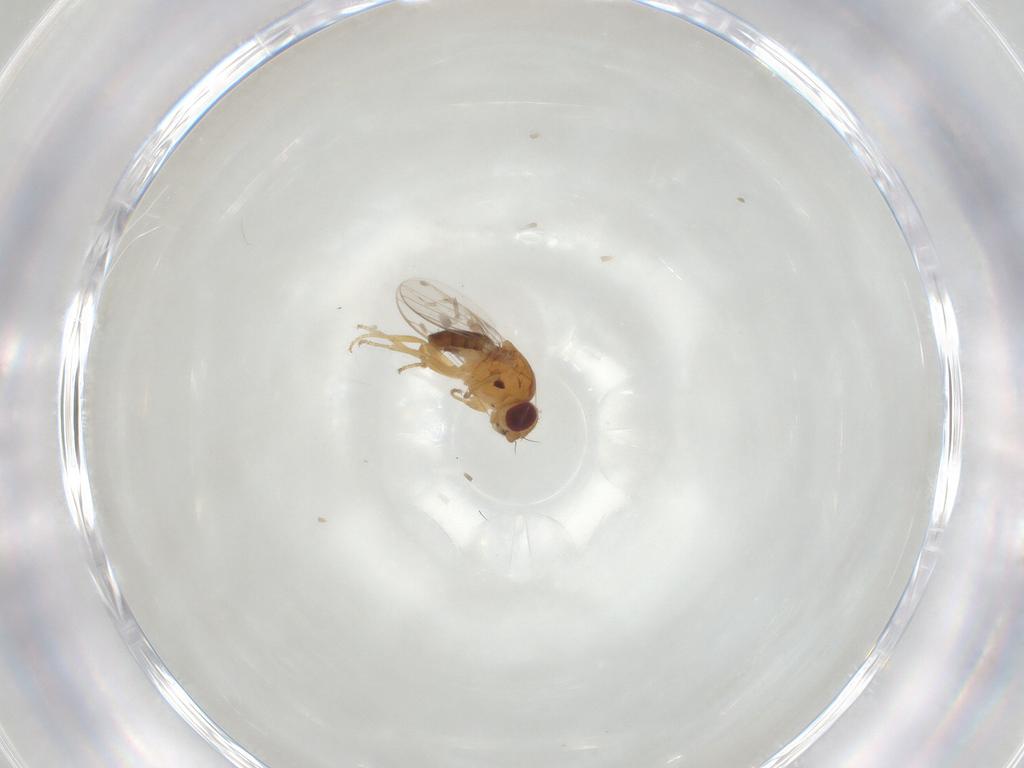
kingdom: Animalia
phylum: Arthropoda
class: Insecta
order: Diptera
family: Chloropidae
